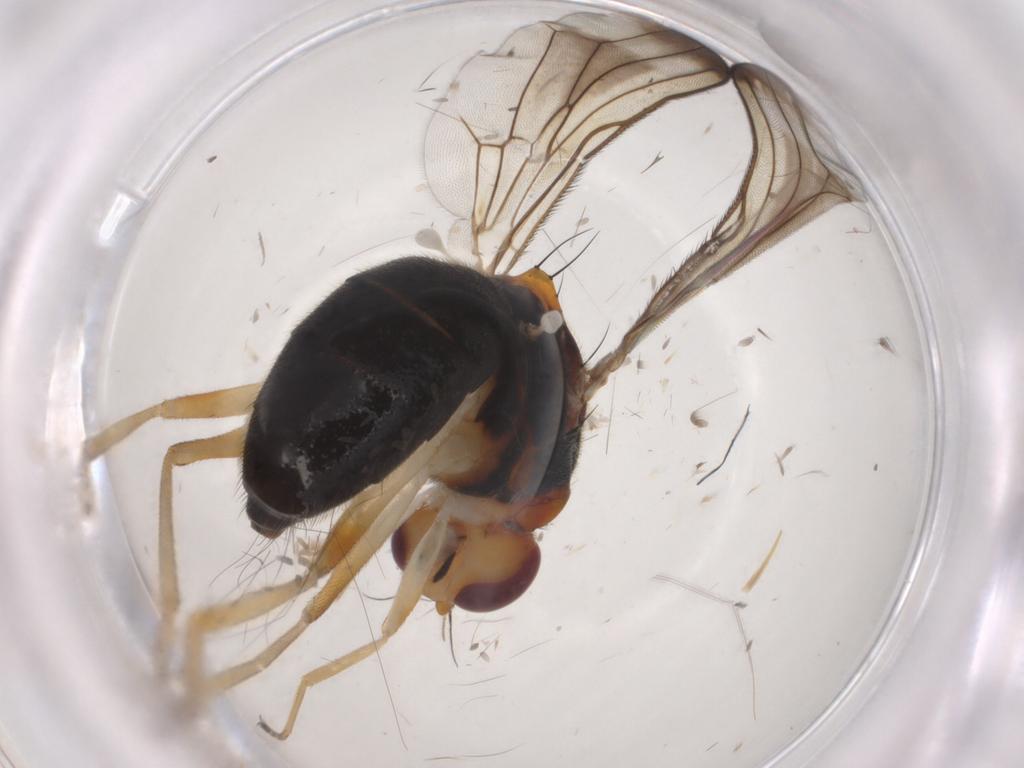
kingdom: Animalia
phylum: Arthropoda
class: Insecta
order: Diptera
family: Psilidae
